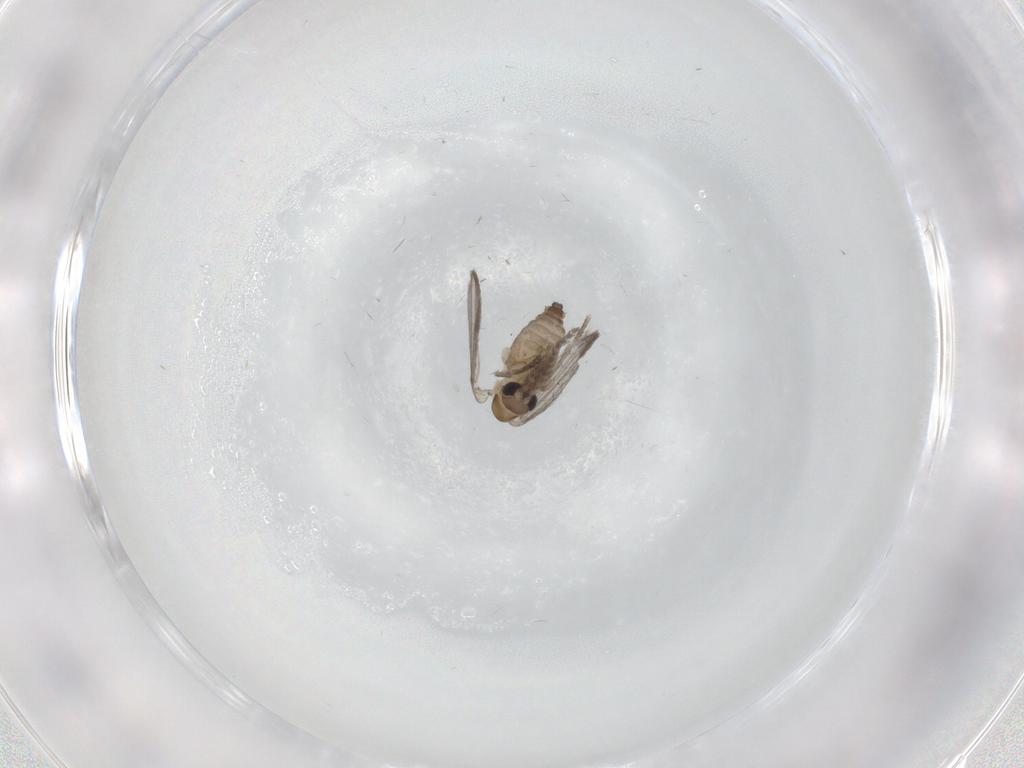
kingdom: Animalia
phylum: Arthropoda
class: Insecta
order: Diptera
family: Psychodidae
